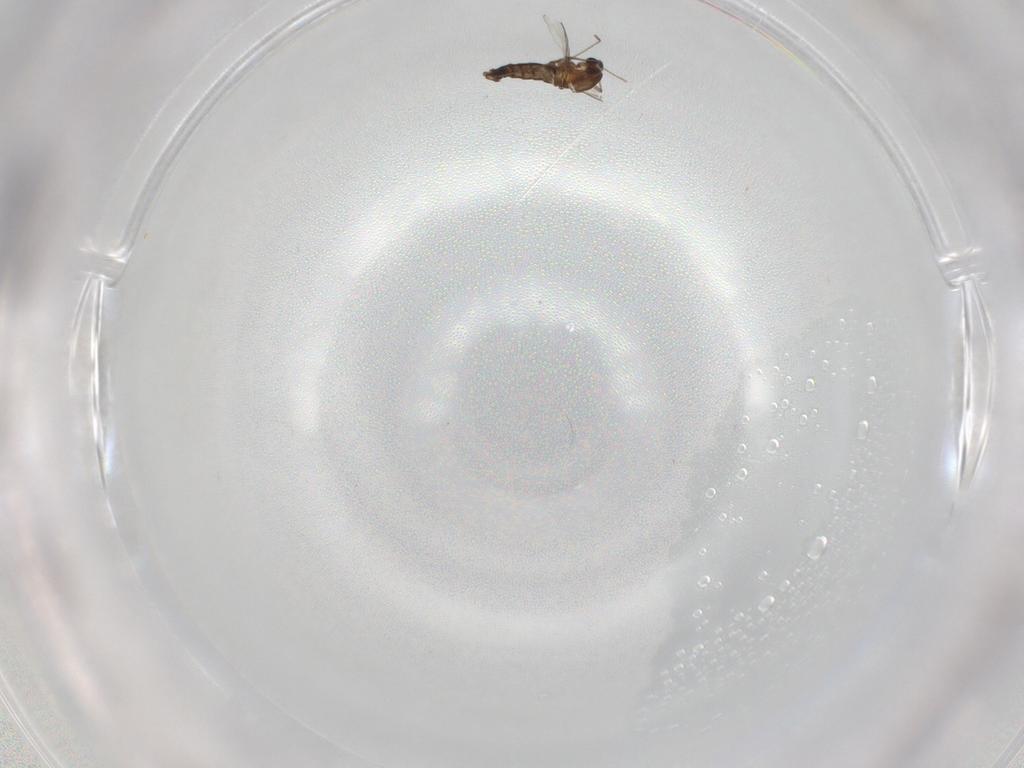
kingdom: Animalia
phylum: Arthropoda
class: Insecta
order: Diptera
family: Chironomidae
